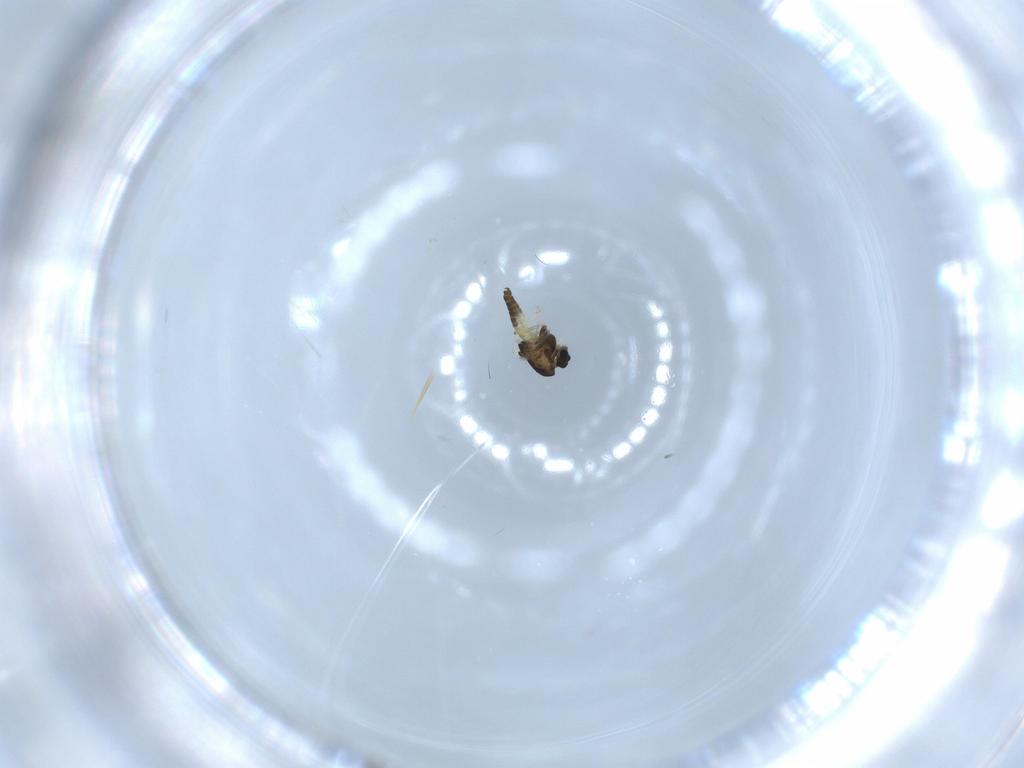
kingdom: Animalia
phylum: Arthropoda
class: Insecta
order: Diptera
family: Chironomidae
